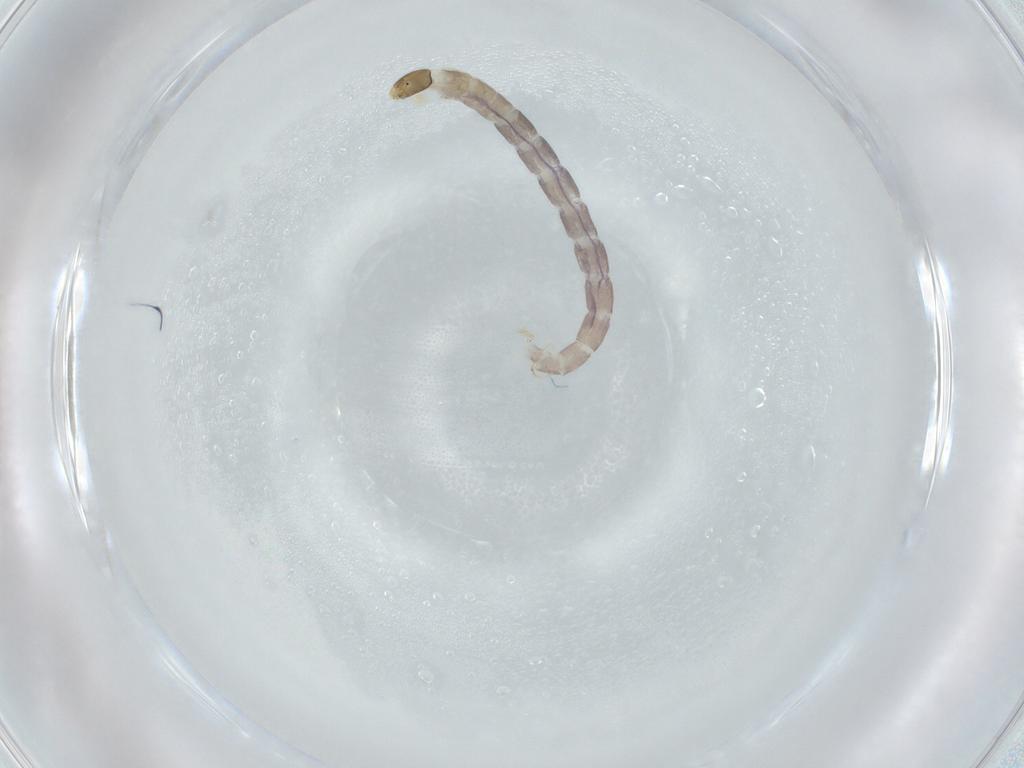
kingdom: Animalia
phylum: Arthropoda
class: Insecta
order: Diptera
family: Chironomidae
